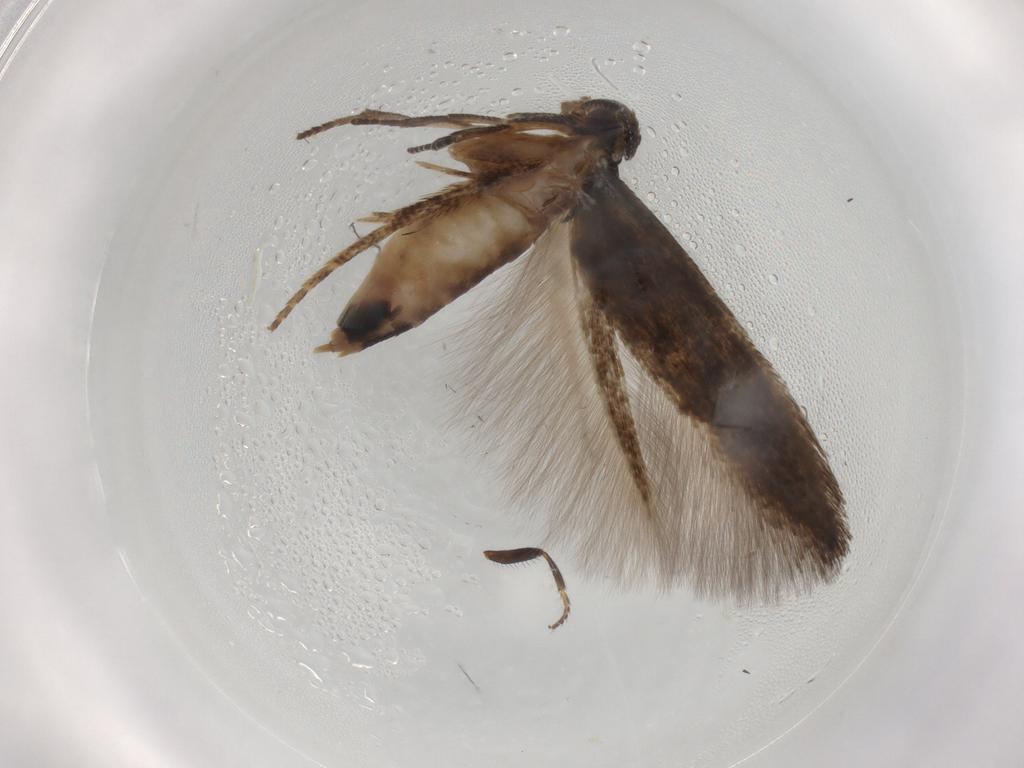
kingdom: Animalia
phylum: Arthropoda
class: Insecta
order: Lepidoptera
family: Cosmopterigidae
